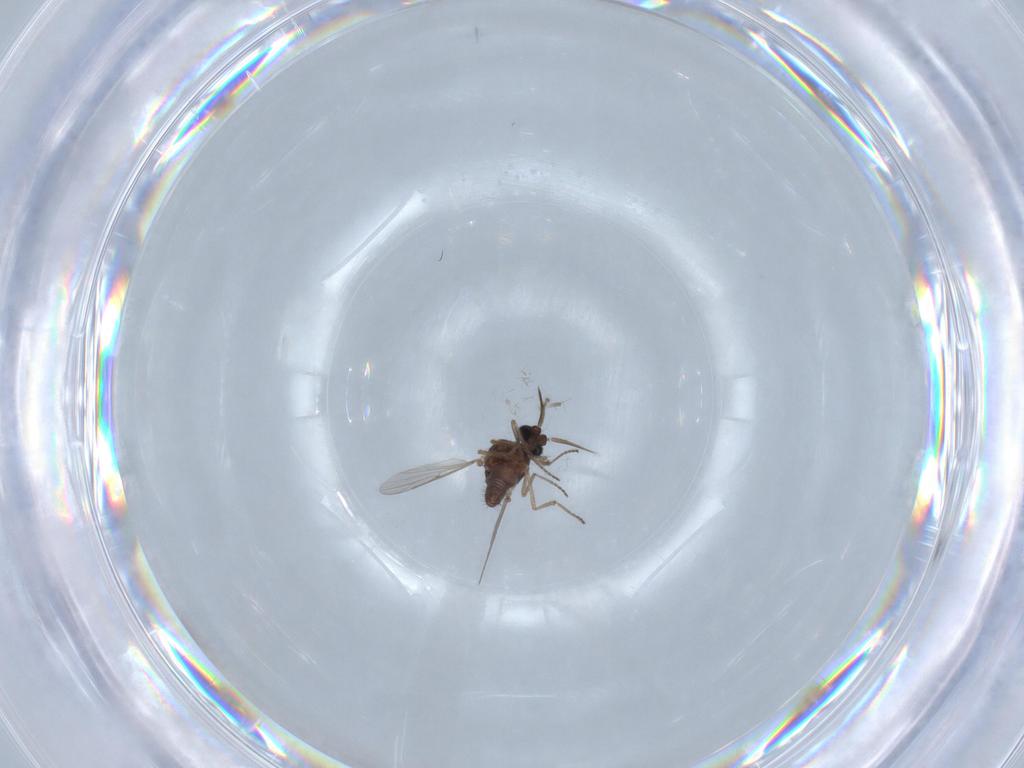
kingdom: Animalia
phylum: Arthropoda
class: Insecta
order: Diptera
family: Ceratopogonidae
